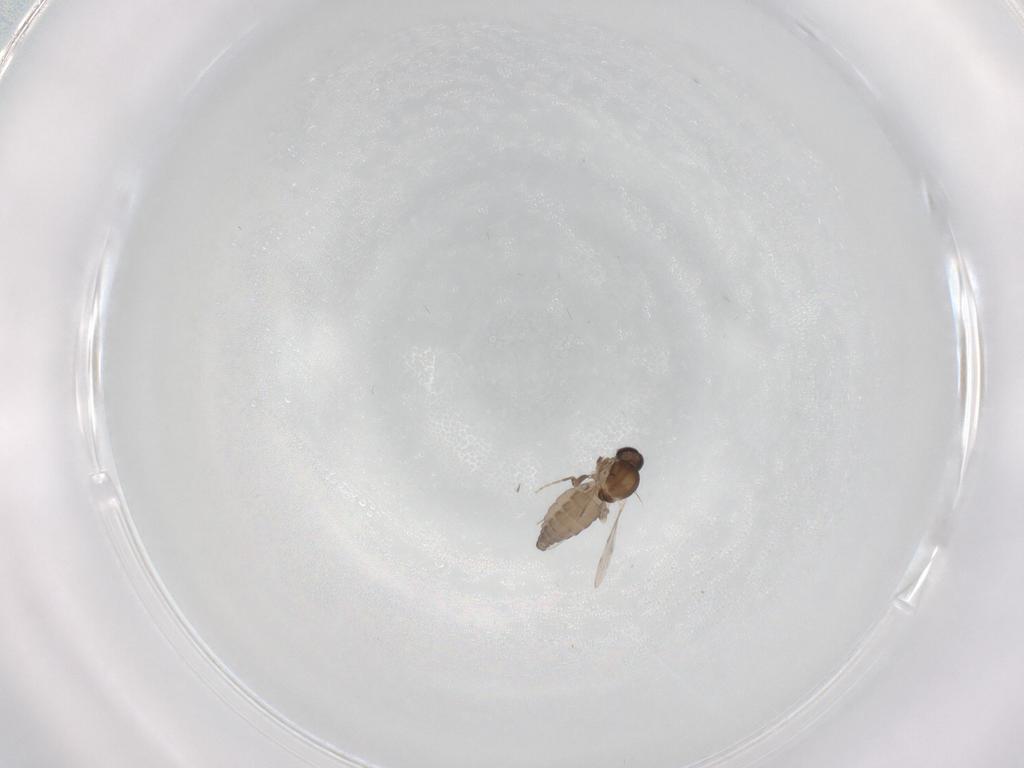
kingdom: Animalia
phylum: Arthropoda
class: Insecta
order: Diptera
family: Ceratopogonidae
